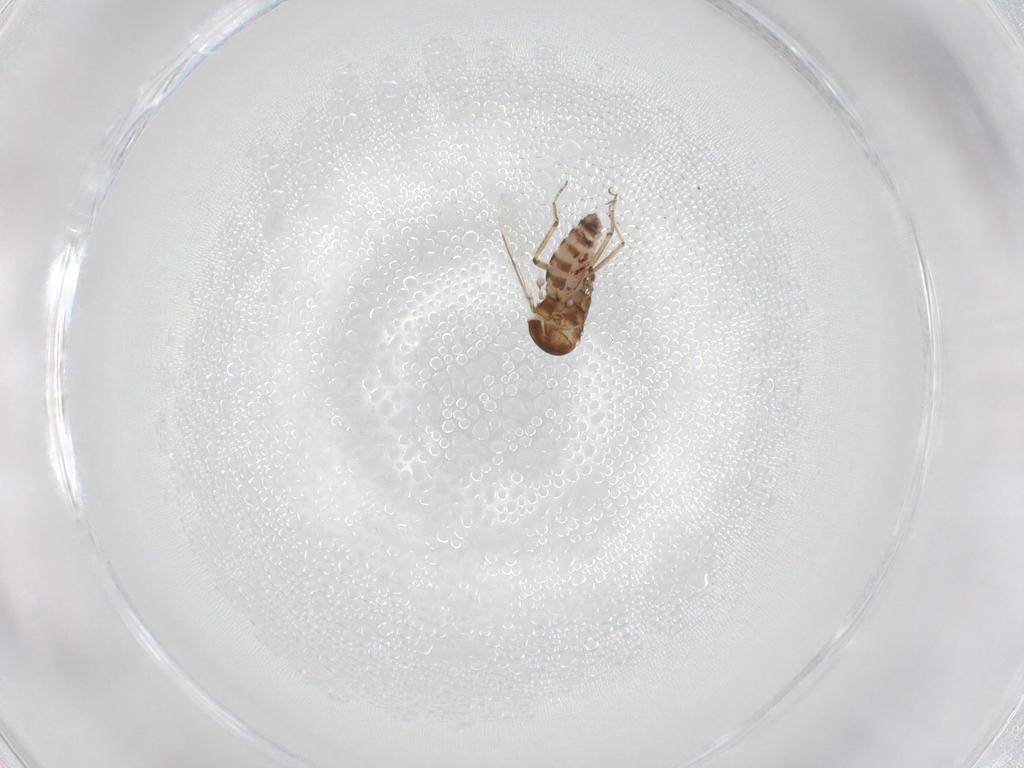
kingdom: Animalia
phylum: Arthropoda
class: Insecta
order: Diptera
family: Ceratopogonidae
